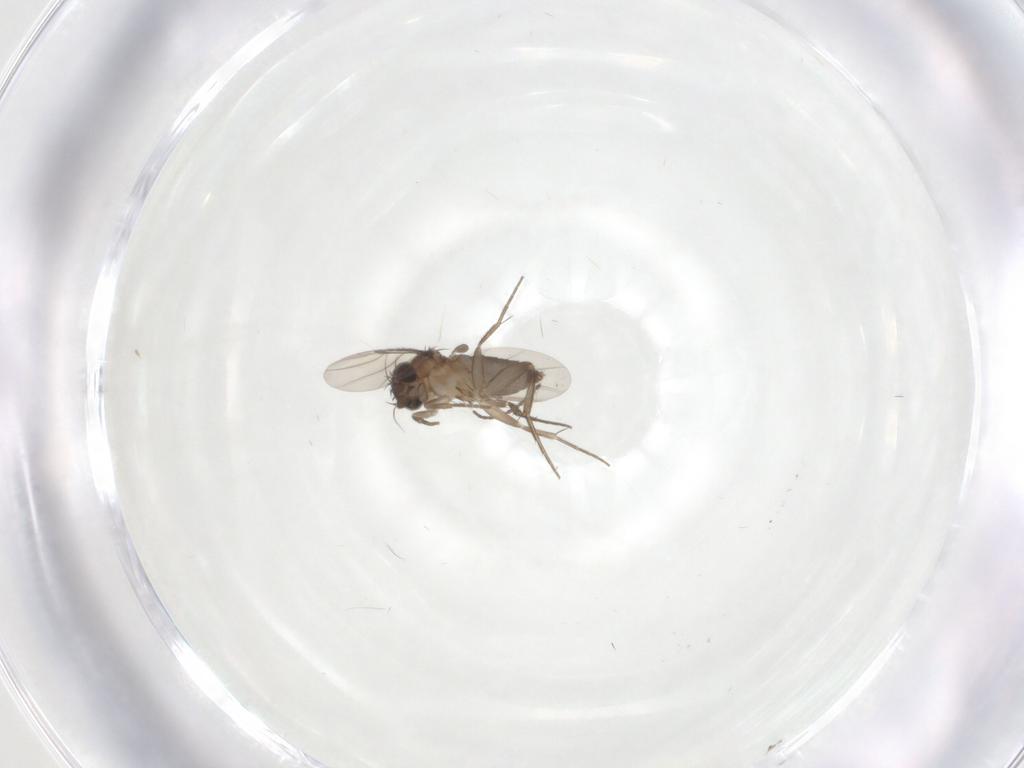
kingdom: Animalia
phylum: Arthropoda
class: Insecta
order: Diptera
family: Phoridae
